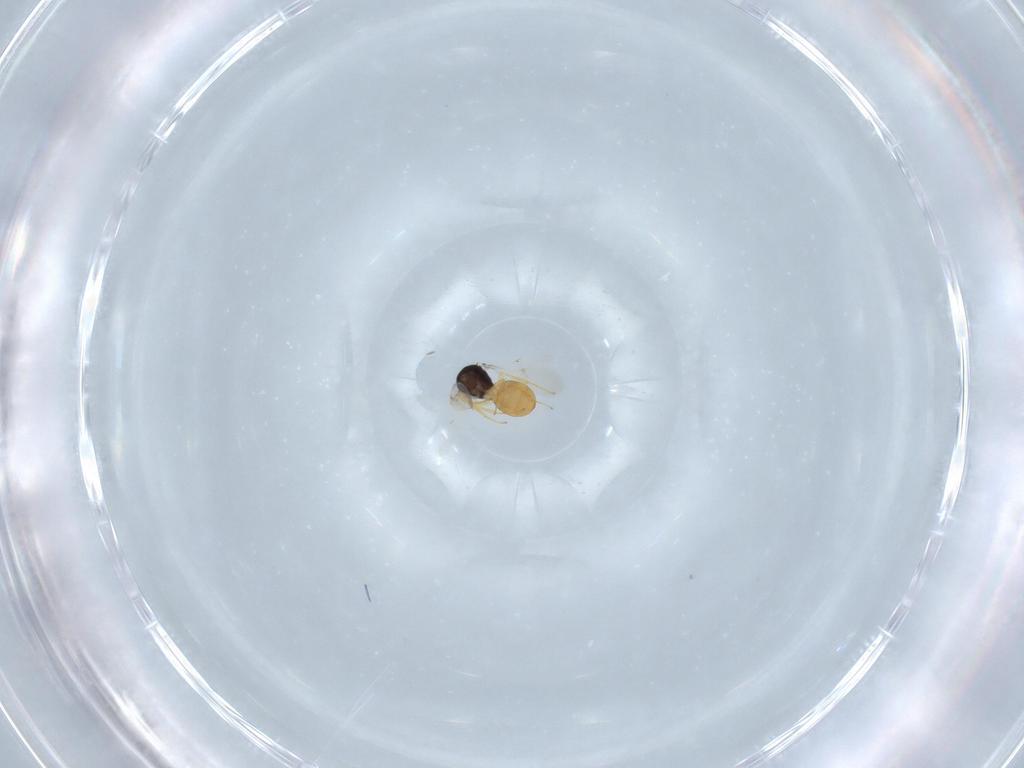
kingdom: Animalia
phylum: Arthropoda
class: Insecta
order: Hymenoptera
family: Scelionidae
